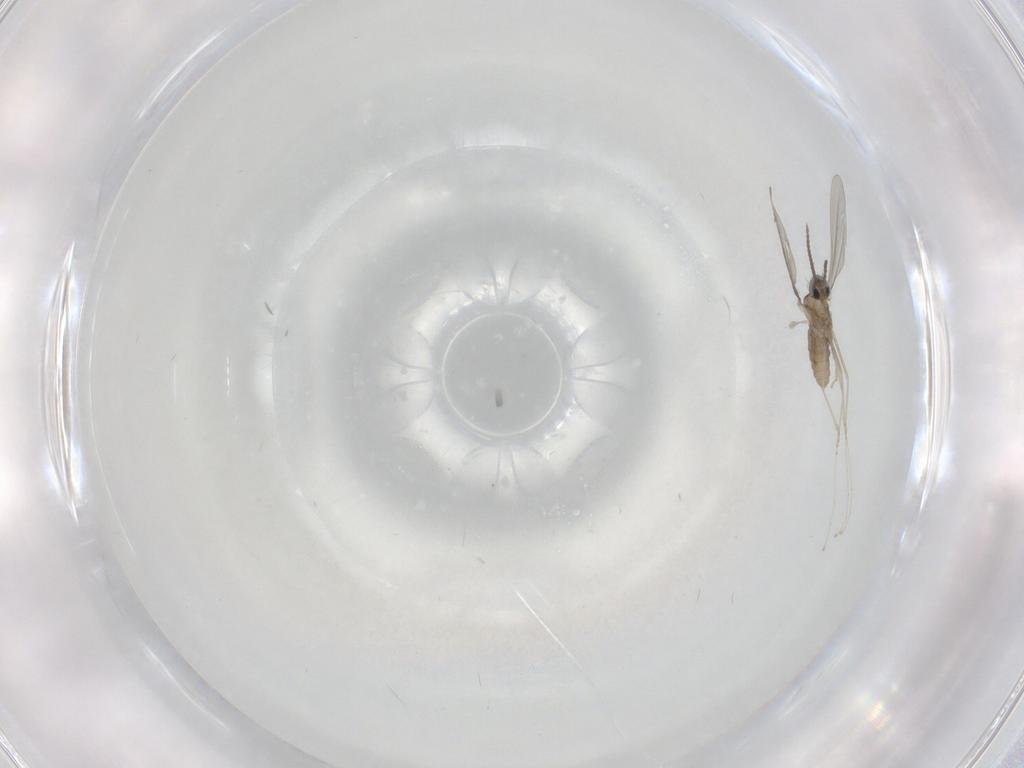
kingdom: Animalia
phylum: Arthropoda
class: Insecta
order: Diptera
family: Cecidomyiidae
